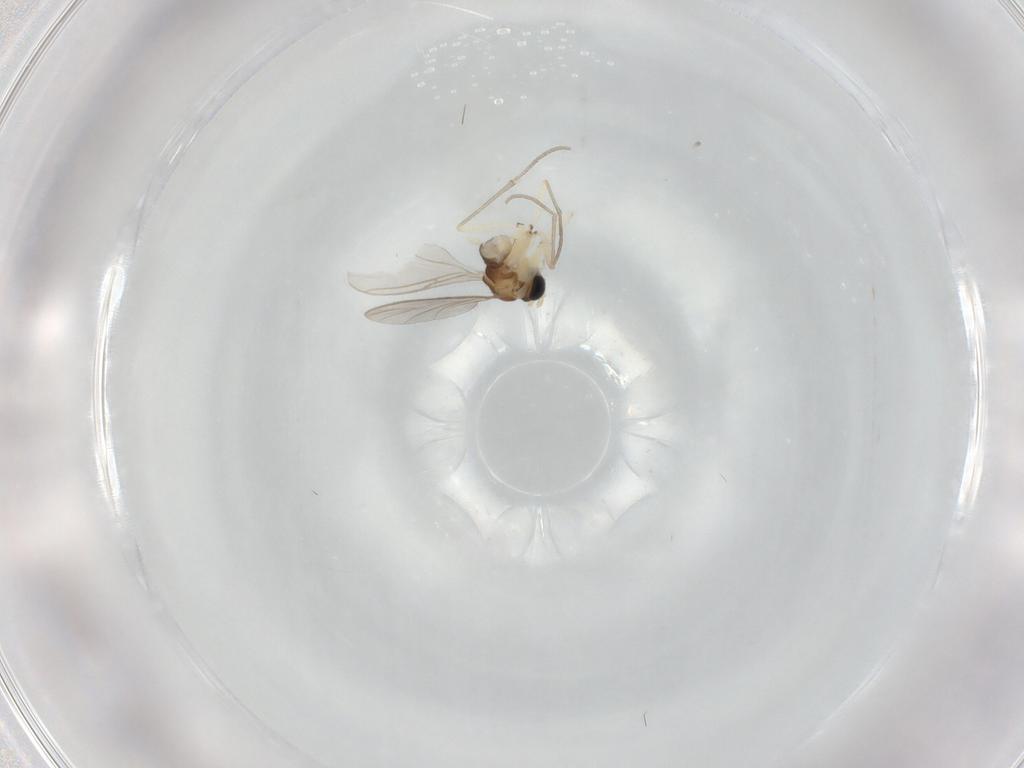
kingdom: Animalia
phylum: Arthropoda
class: Insecta
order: Diptera
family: Sciaridae
